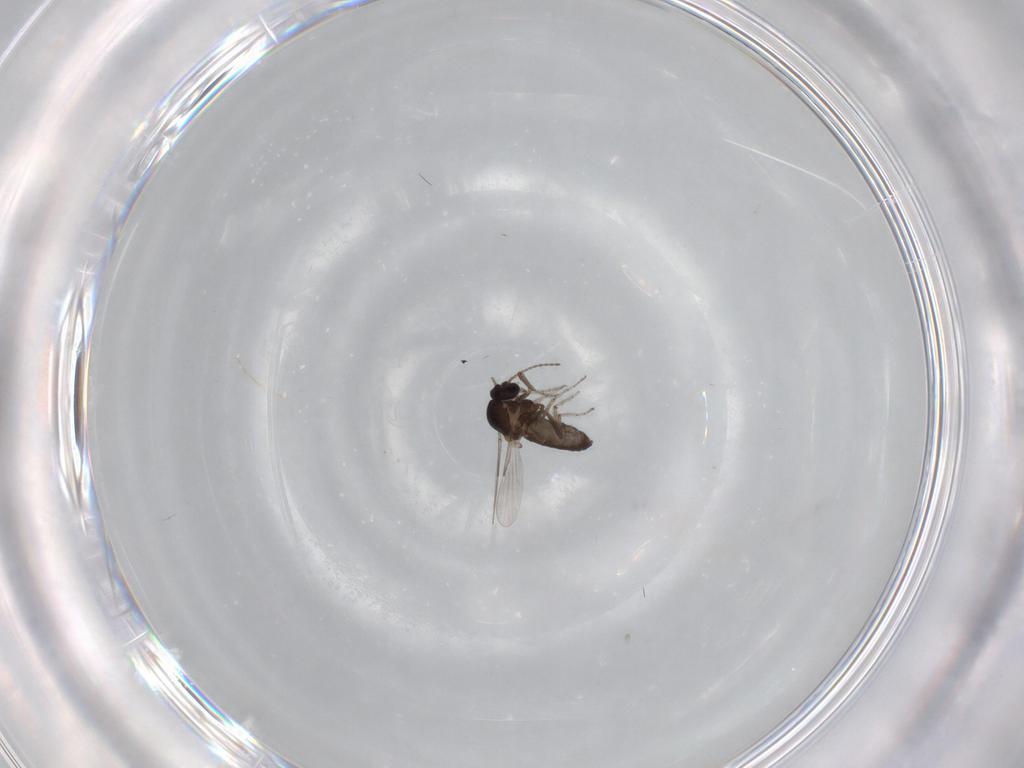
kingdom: Animalia
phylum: Arthropoda
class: Insecta
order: Diptera
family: Ceratopogonidae
